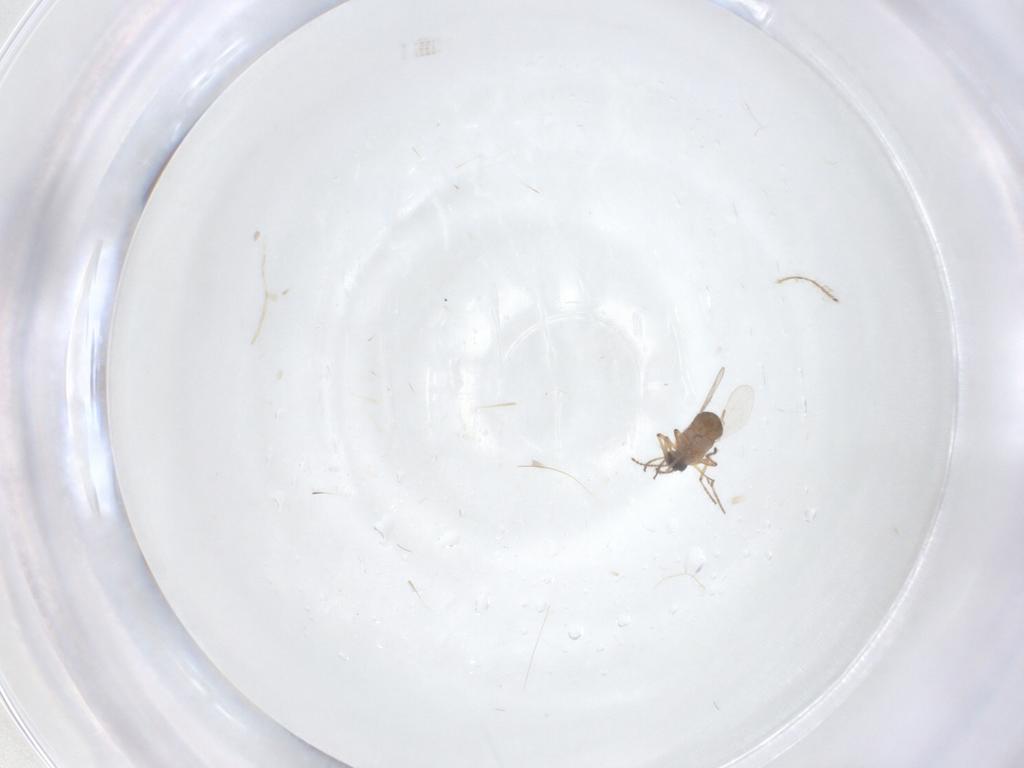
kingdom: Animalia
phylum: Arthropoda
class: Insecta
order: Diptera
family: Ceratopogonidae
